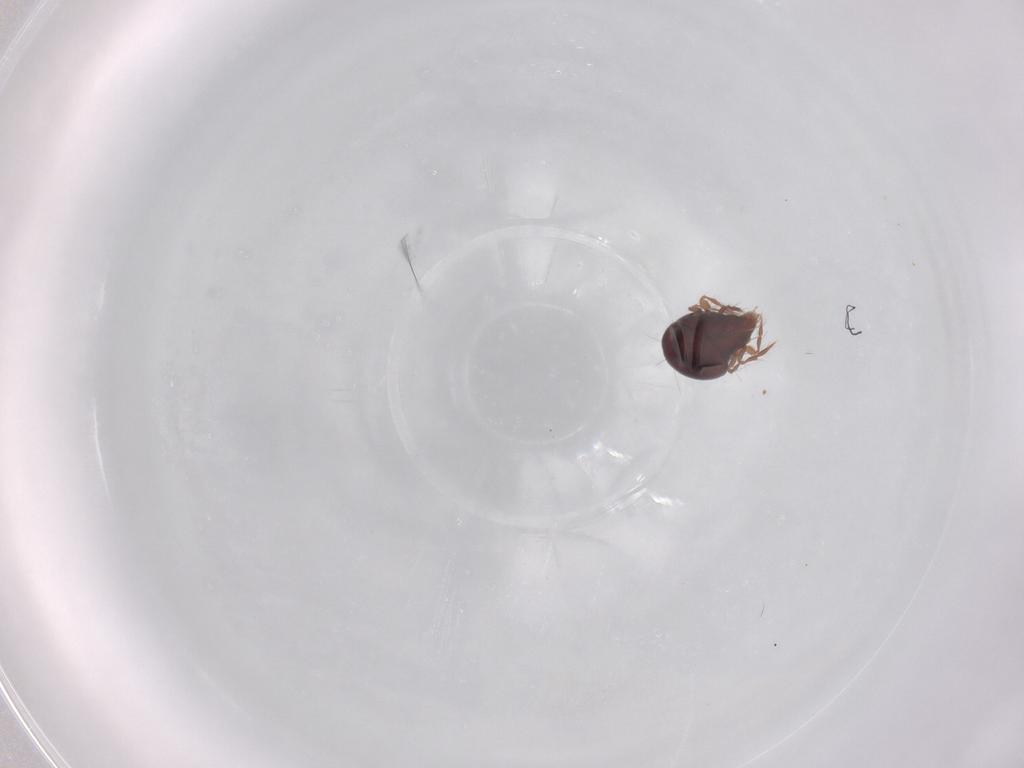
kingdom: Animalia
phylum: Arthropoda
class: Arachnida
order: Sarcoptiformes
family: Ceratoppiidae
